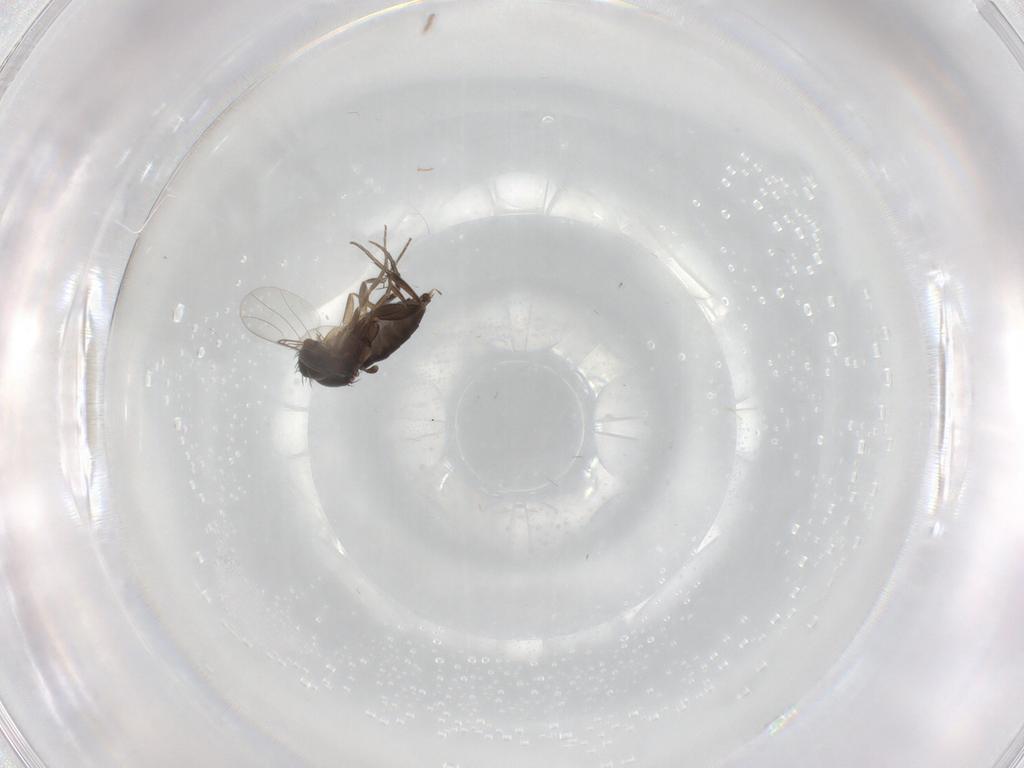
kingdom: Animalia
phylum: Arthropoda
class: Insecta
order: Diptera
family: Phoridae
